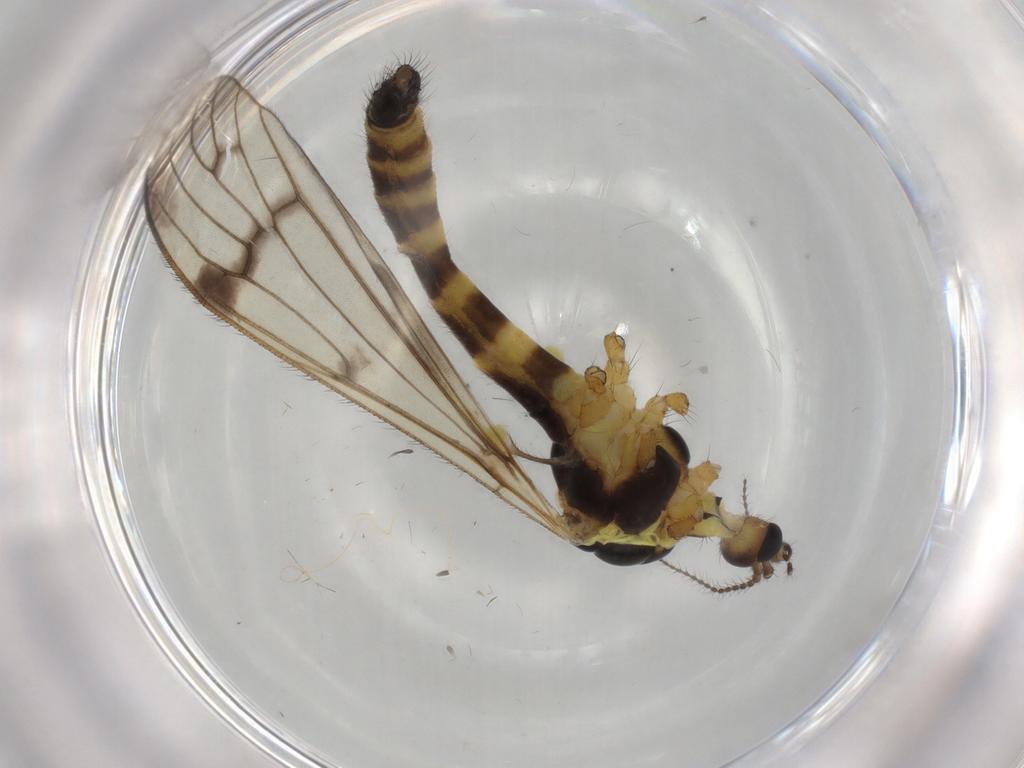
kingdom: Animalia
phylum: Arthropoda
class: Insecta
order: Diptera
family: Limoniidae
